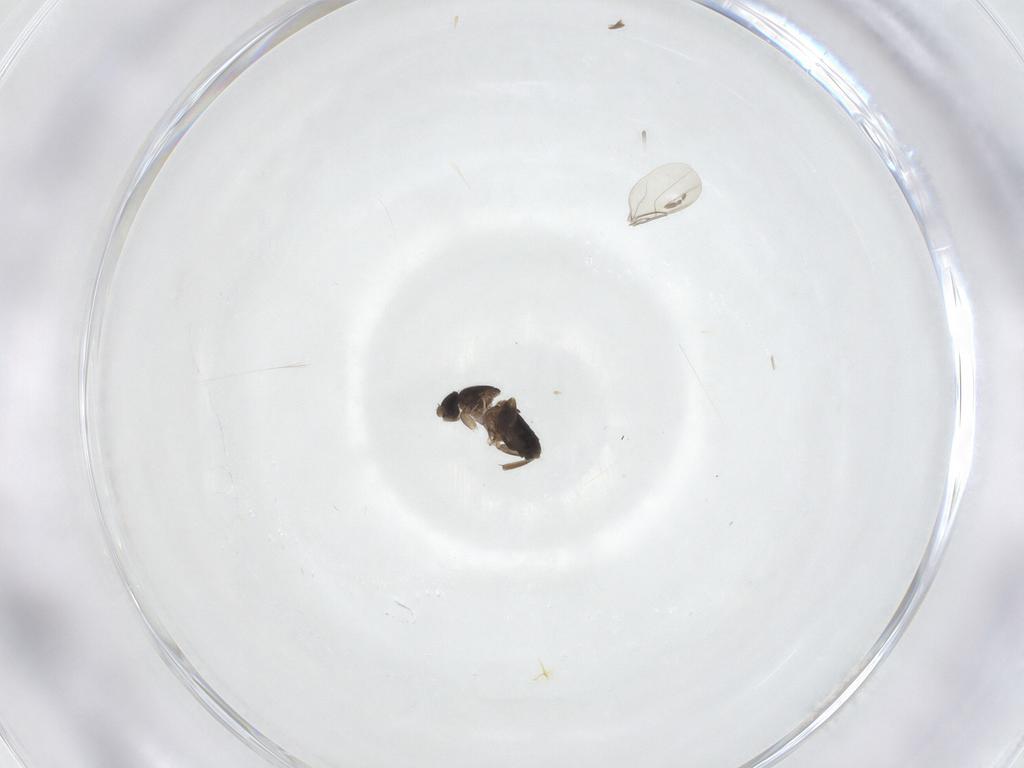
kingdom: Animalia
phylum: Arthropoda
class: Insecta
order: Diptera
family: Phoridae
